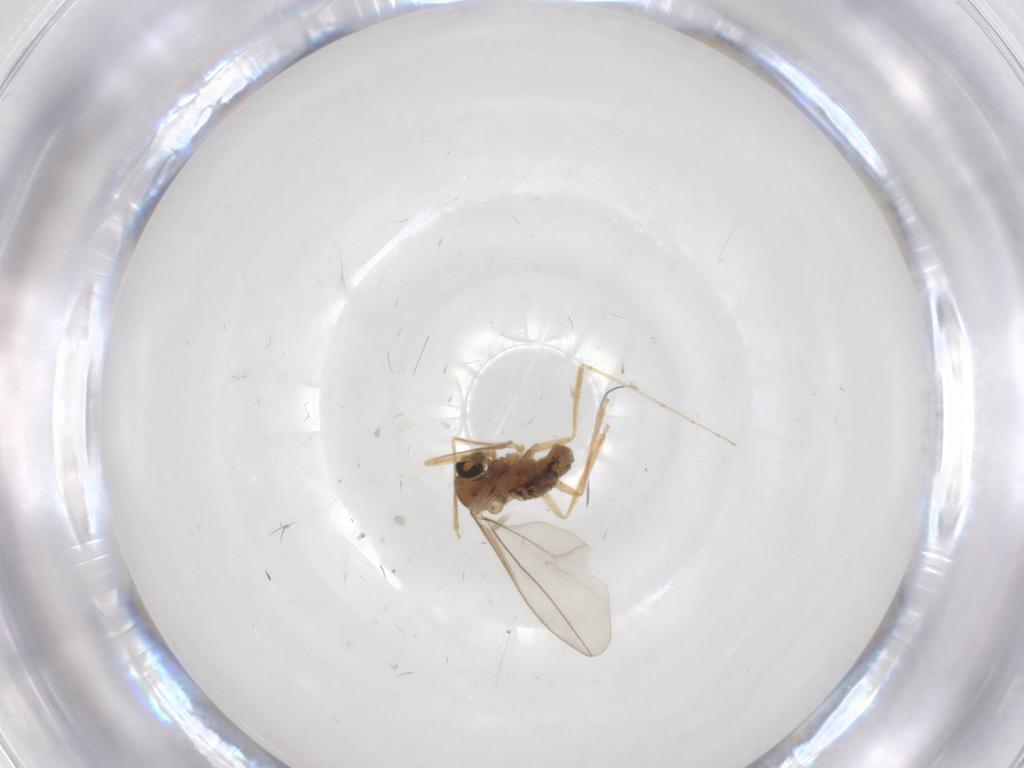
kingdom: Animalia
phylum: Arthropoda
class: Insecta
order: Diptera
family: Cecidomyiidae
